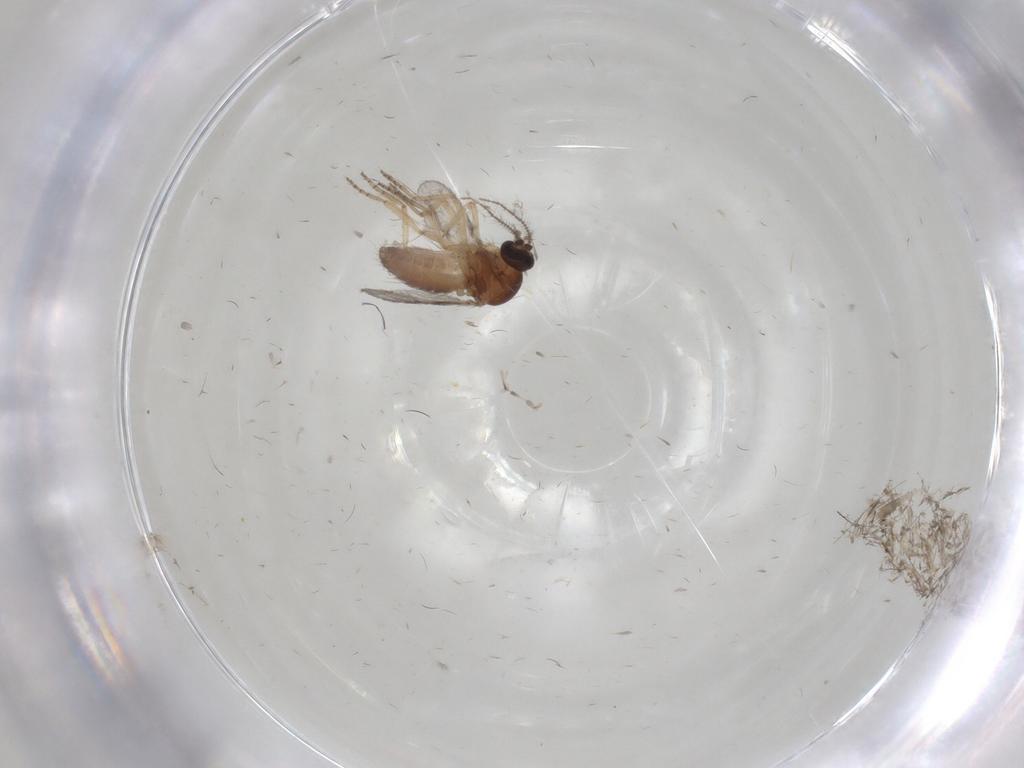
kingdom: Animalia
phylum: Arthropoda
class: Insecta
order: Diptera
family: Ceratopogonidae
